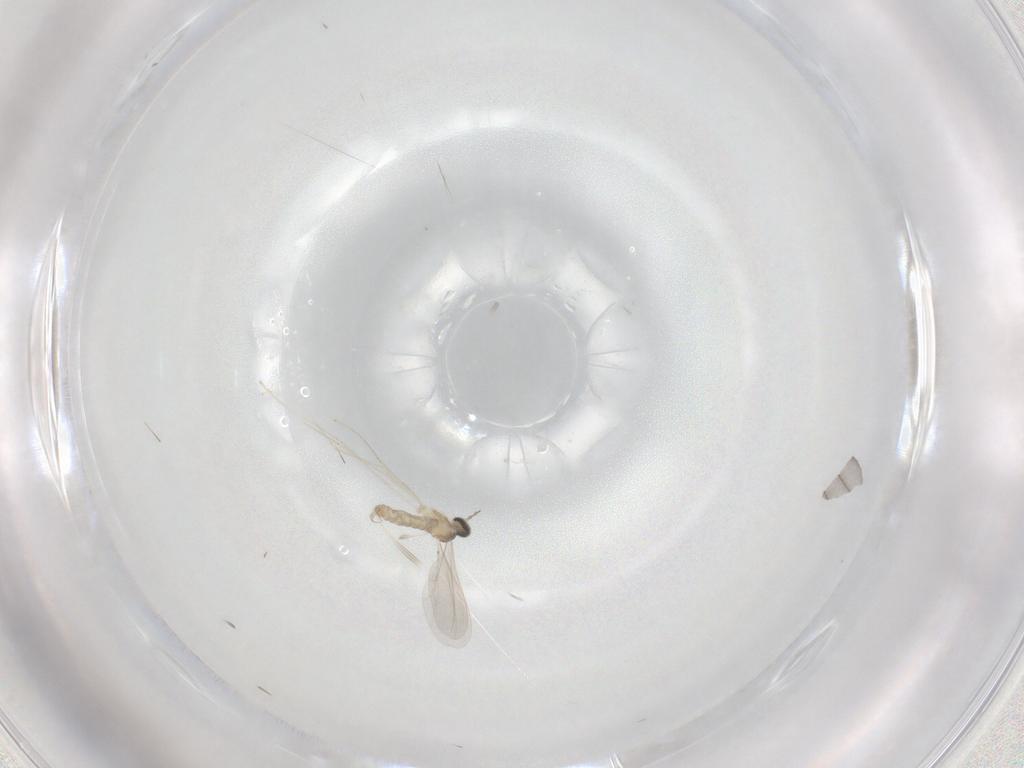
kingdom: Animalia
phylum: Arthropoda
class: Insecta
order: Diptera
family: Cecidomyiidae
